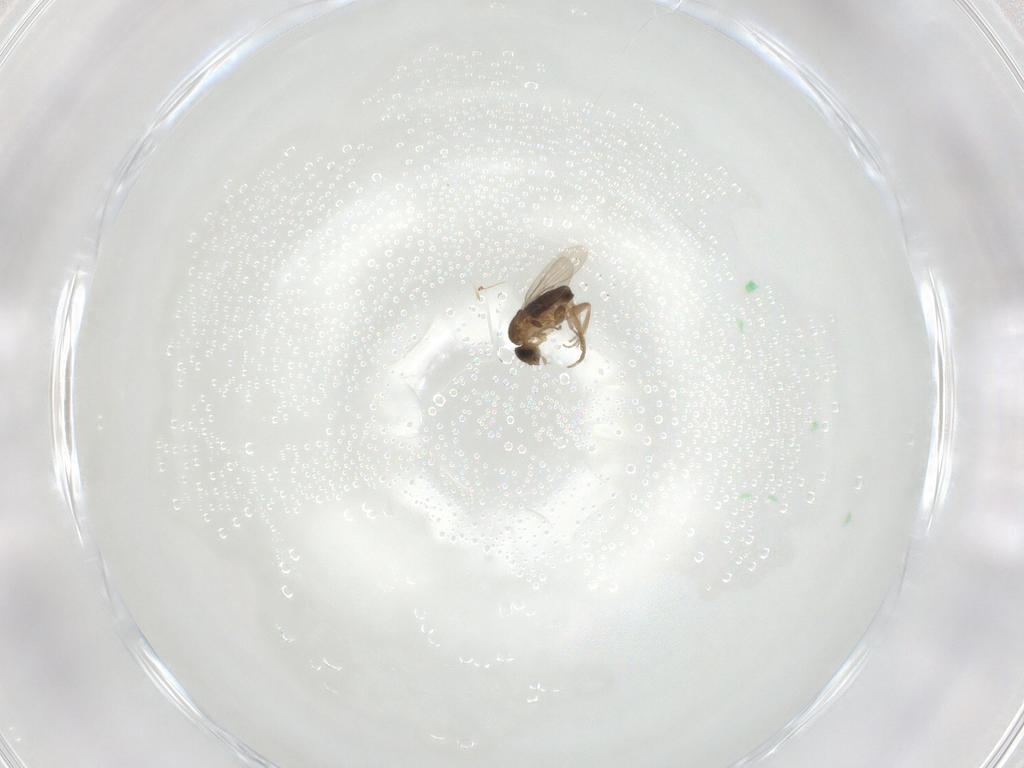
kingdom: Animalia
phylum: Arthropoda
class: Insecta
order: Diptera
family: Phoridae
